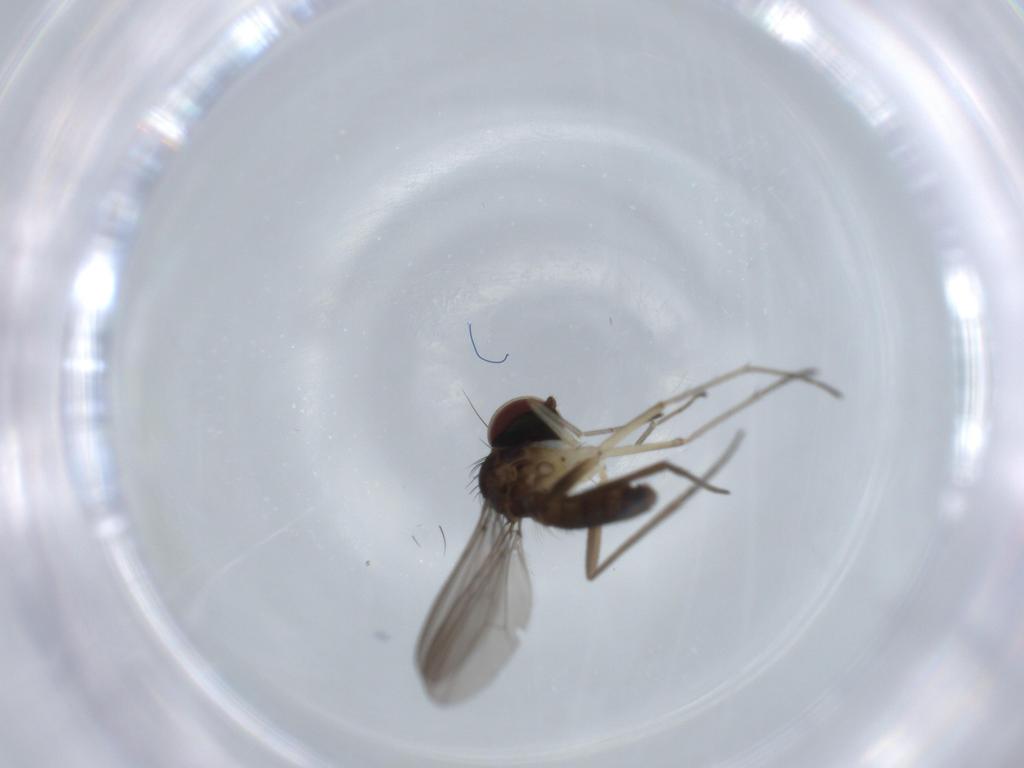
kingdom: Animalia
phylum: Arthropoda
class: Insecta
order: Diptera
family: Dolichopodidae
